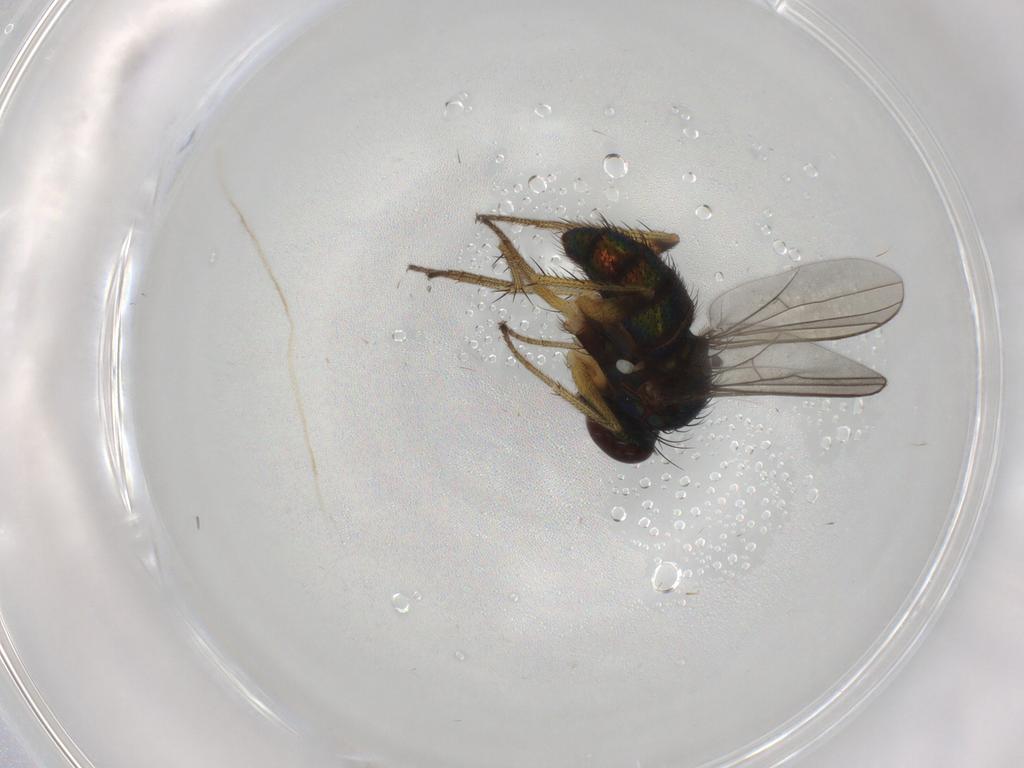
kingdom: Animalia
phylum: Arthropoda
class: Insecta
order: Diptera
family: Dolichopodidae
